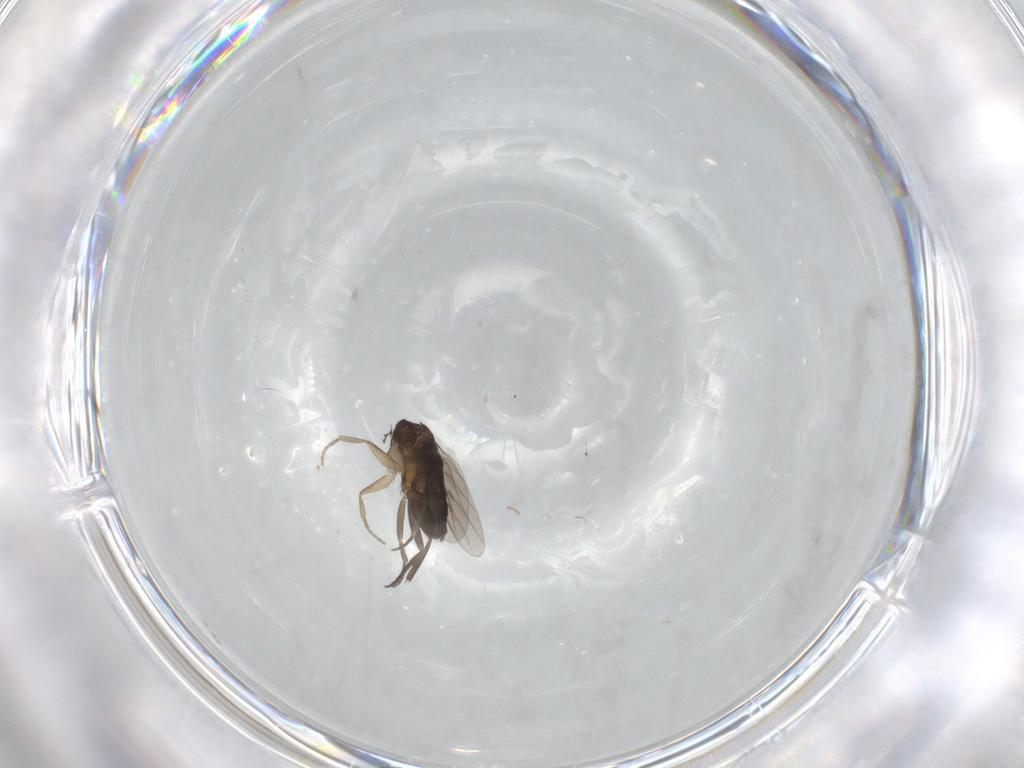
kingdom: Animalia
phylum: Arthropoda
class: Insecta
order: Diptera
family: Phoridae
